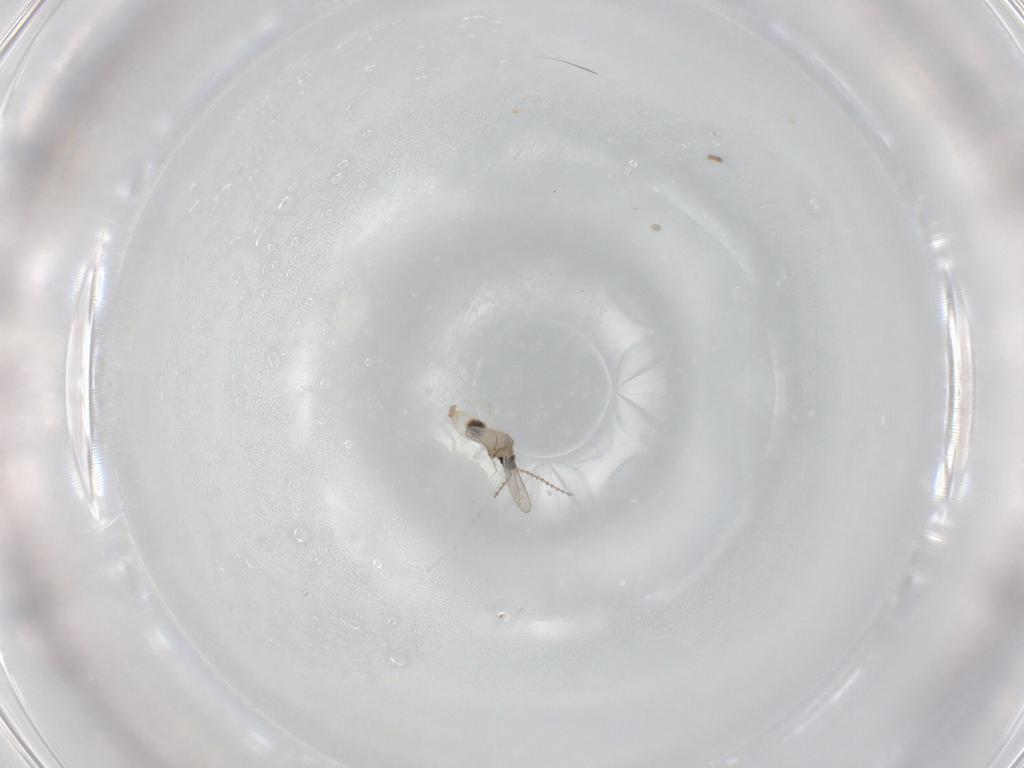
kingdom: Animalia
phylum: Arthropoda
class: Insecta
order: Diptera
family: Cecidomyiidae
